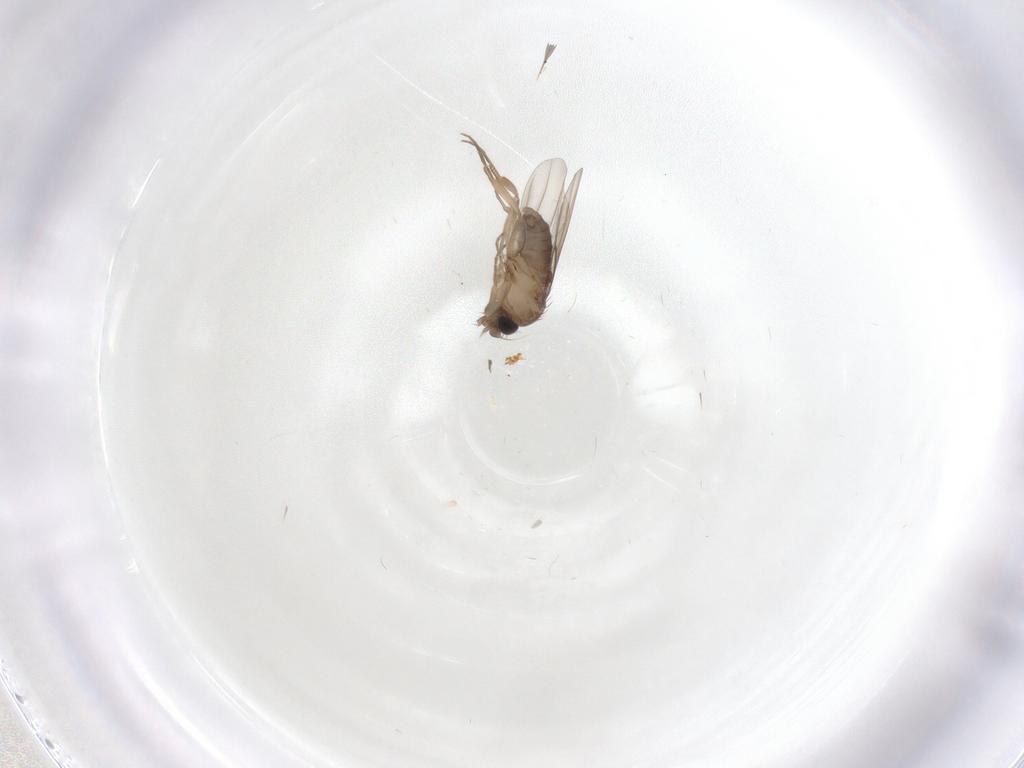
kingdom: Animalia
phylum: Arthropoda
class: Insecta
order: Diptera
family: Phoridae
